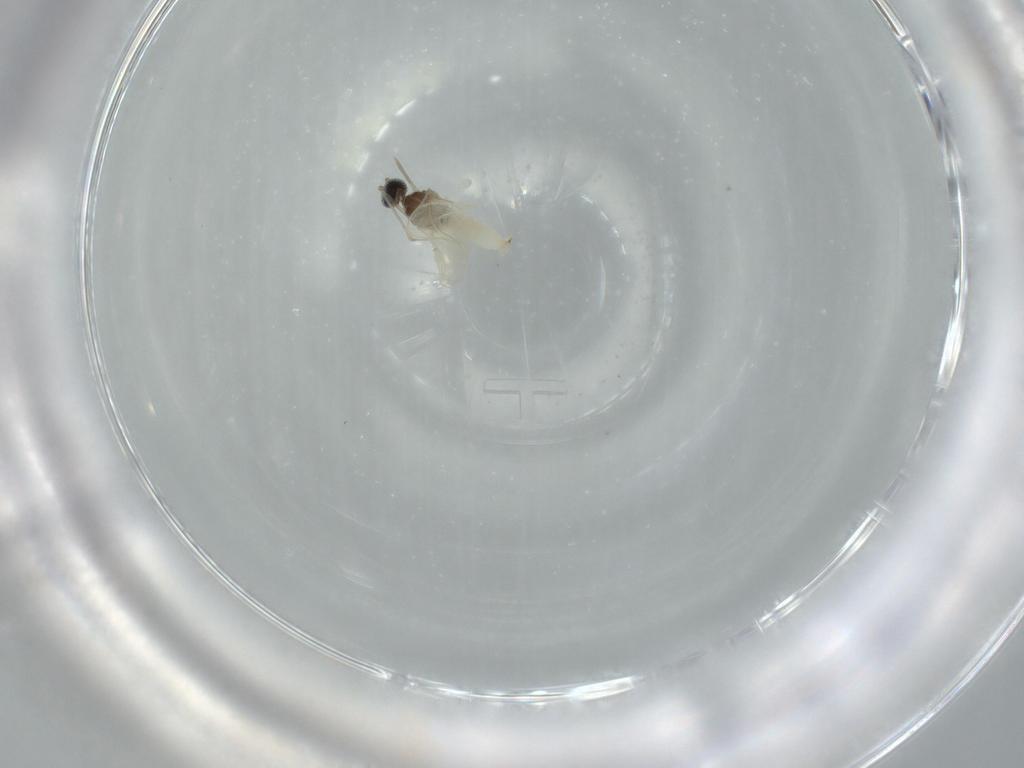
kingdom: Animalia
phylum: Arthropoda
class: Insecta
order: Diptera
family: Cecidomyiidae
